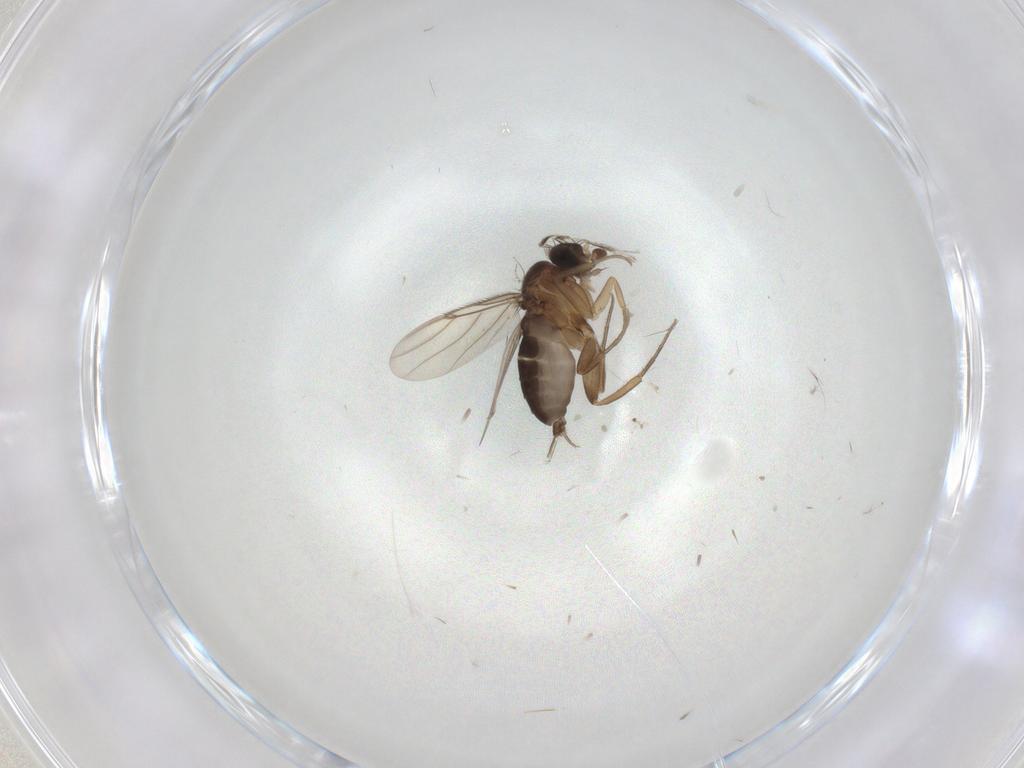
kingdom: Animalia
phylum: Arthropoda
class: Insecta
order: Diptera
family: Cecidomyiidae
